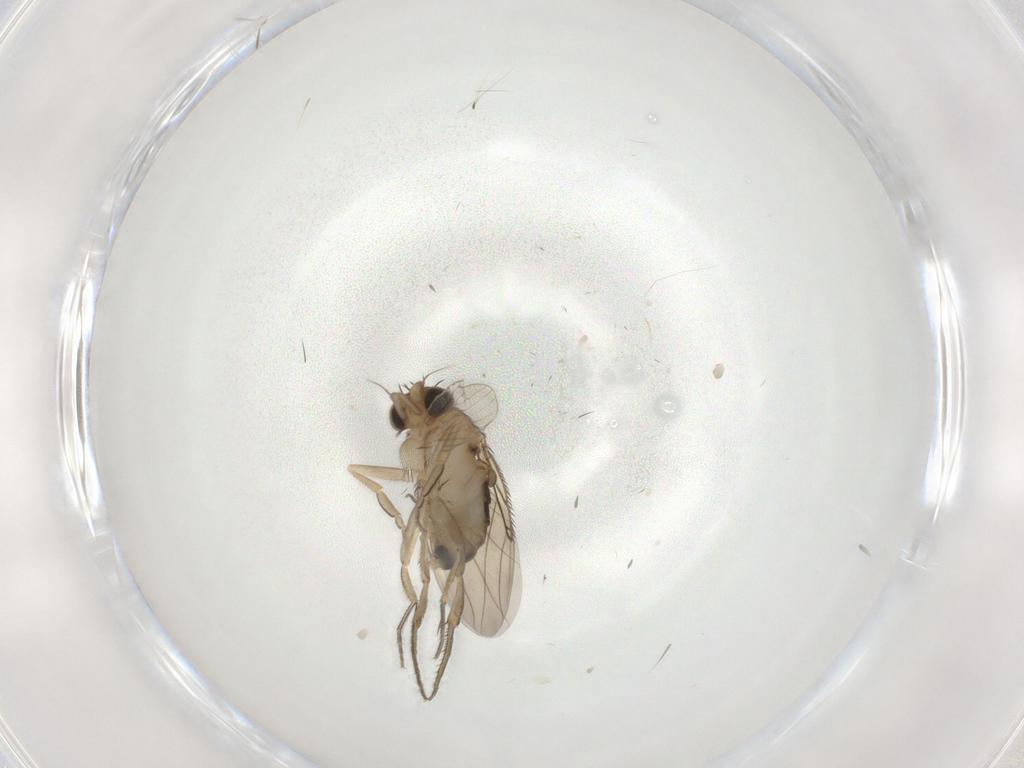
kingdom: Animalia
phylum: Arthropoda
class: Insecta
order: Diptera
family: Phoridae
